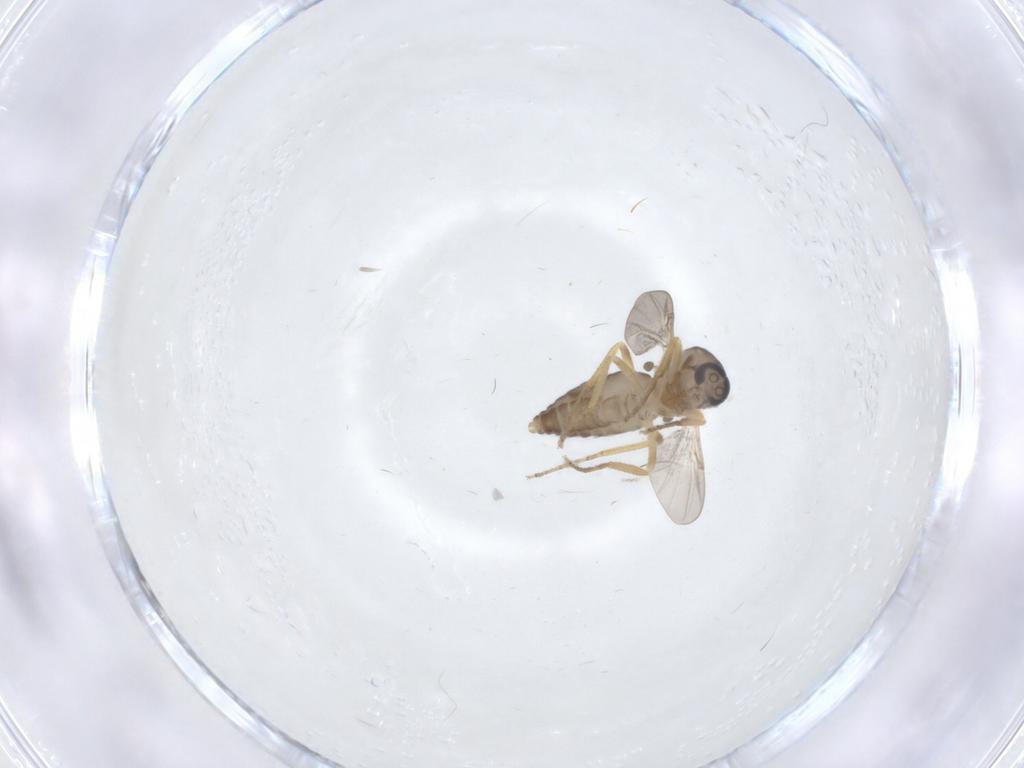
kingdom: Animalia
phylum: Arthropoda
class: Insecta
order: Diptera
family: Ceratopogonidae
